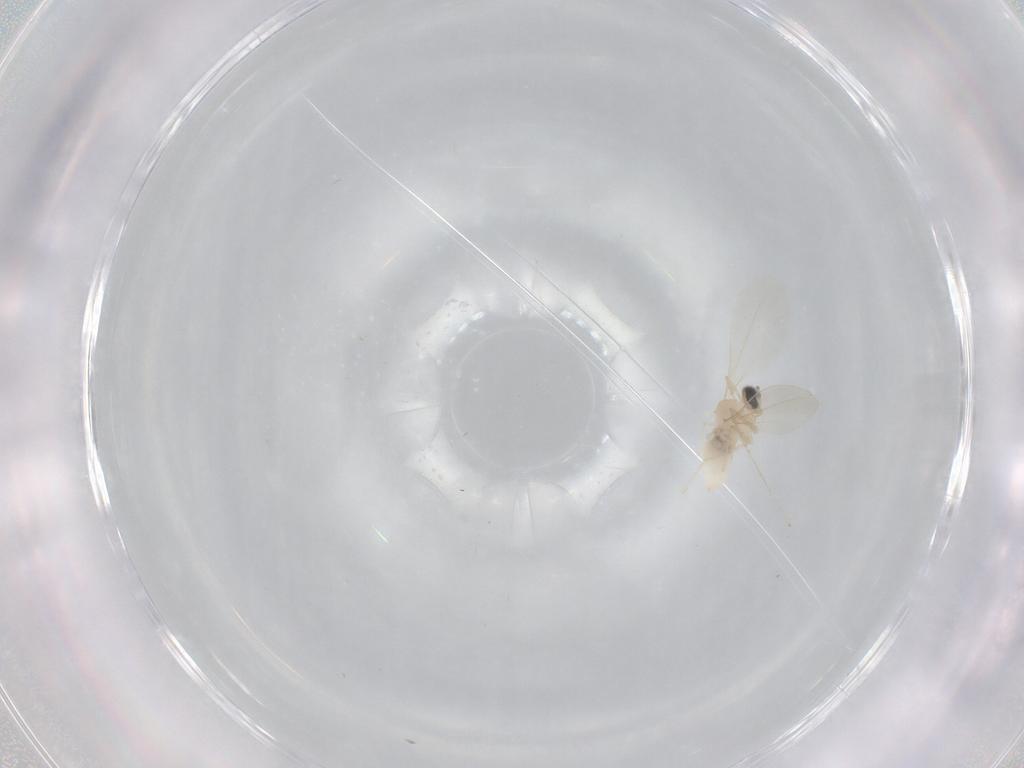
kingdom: Animalia
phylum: Arthropoda
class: Insecta
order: Diptera
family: Cecidomyiidae
